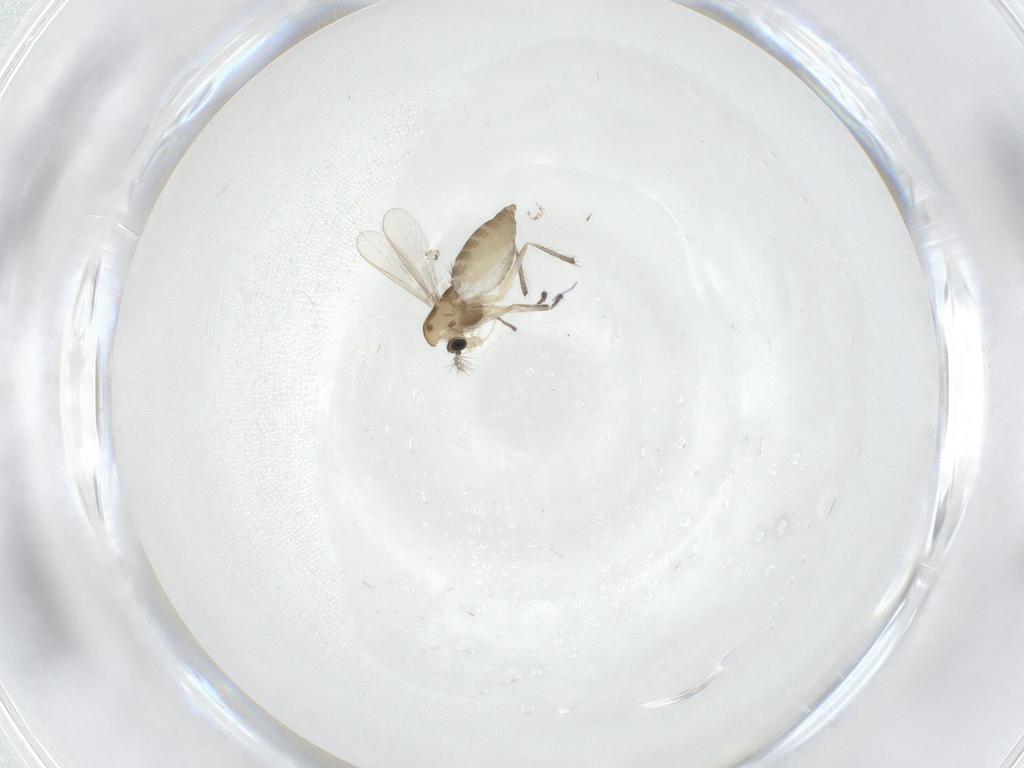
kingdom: Animalia
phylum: Arthropoda
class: Insecta
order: Diptera
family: Chironomidae
